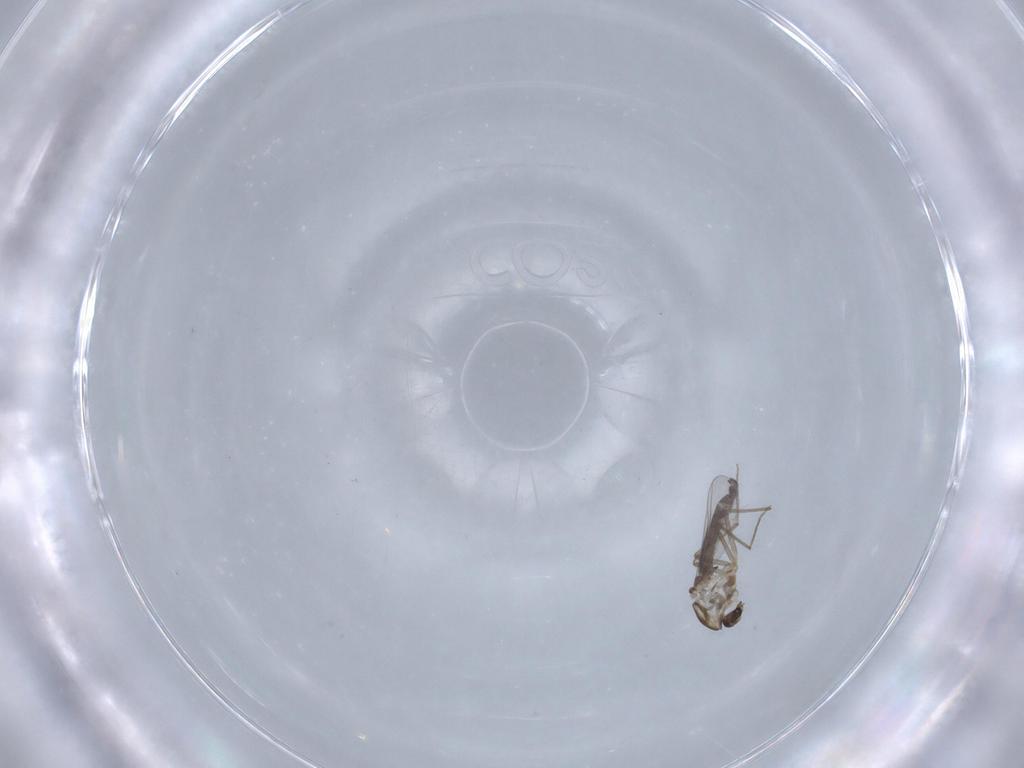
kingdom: Animalia
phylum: Arthropoda
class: Insecta
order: Diptera
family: Chironomidae
